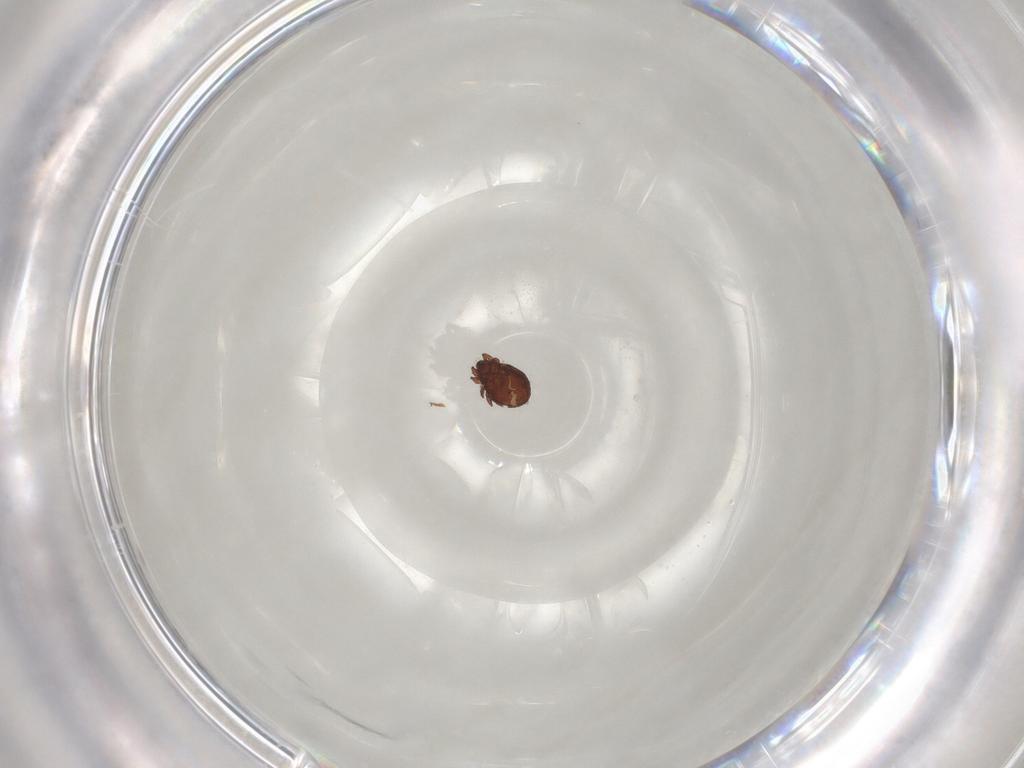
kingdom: Animalia
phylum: Arthropoda
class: Arachnida
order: Sarcoptiformes
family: Scheloribatidae
